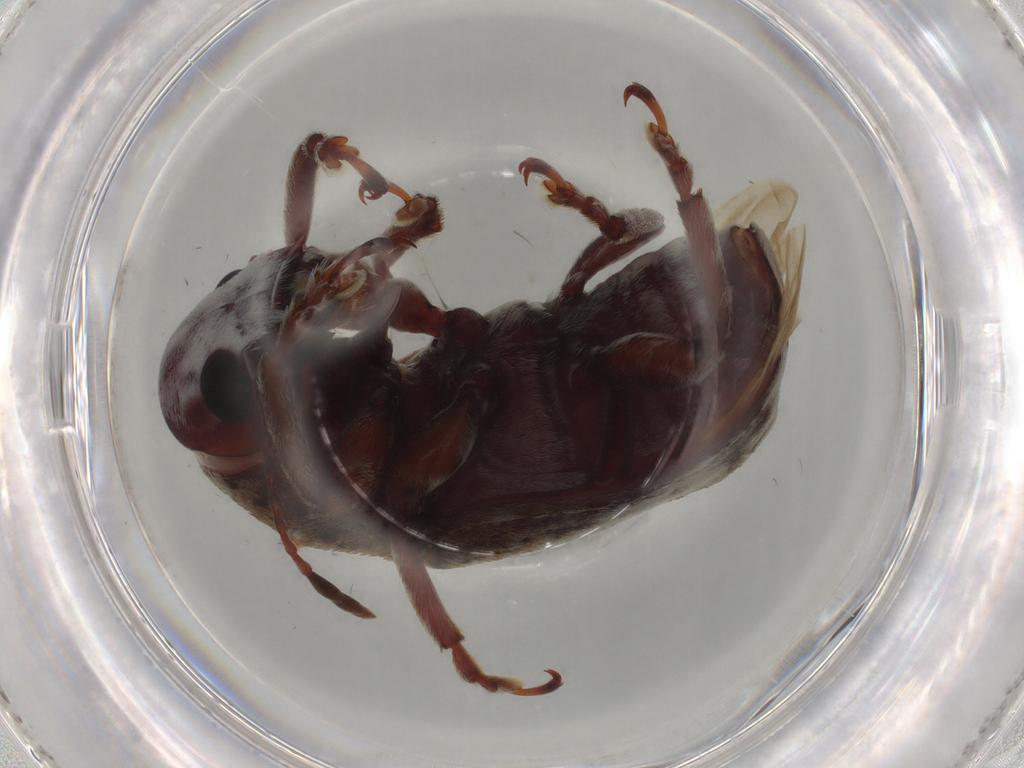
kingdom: Animalia
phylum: Arthropoda
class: Insecta
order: Coleoptera
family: Anthribidae
